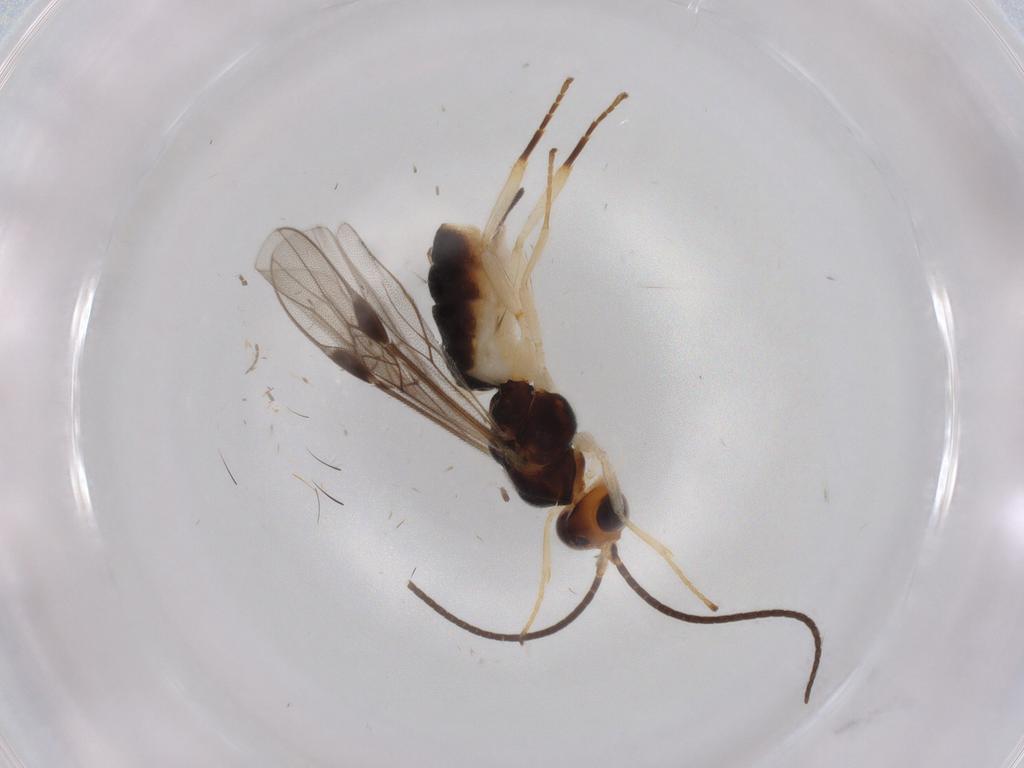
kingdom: Animalia
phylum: Arthropoda
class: Insecta
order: Hymenoptera
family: Braconidae
